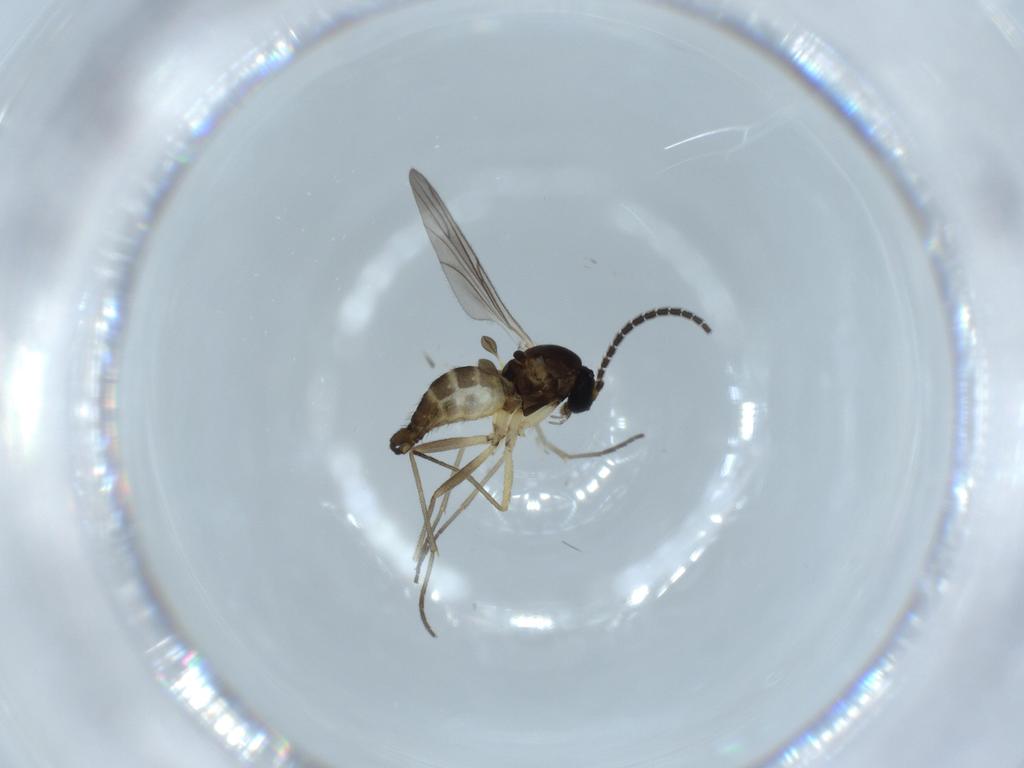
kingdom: Animalia
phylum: Arthropoda
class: Insecta
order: Diptera
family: Sciaridae
